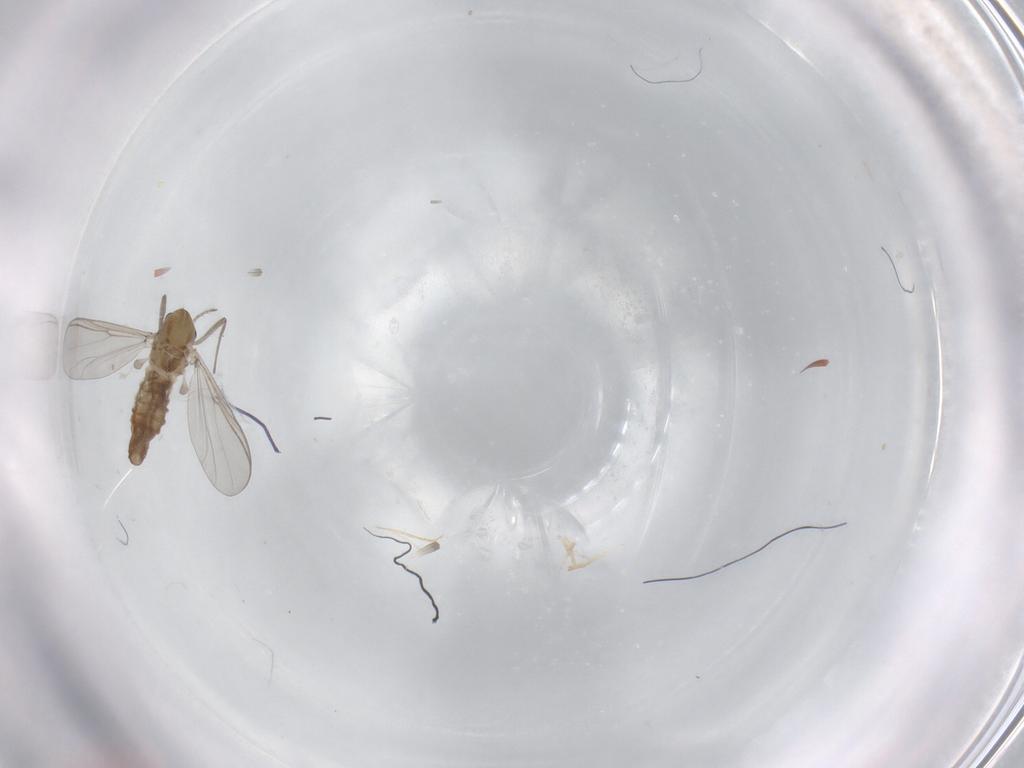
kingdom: Animalia
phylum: Arthropoda
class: Insecta
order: Diptera
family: Chironomidae
